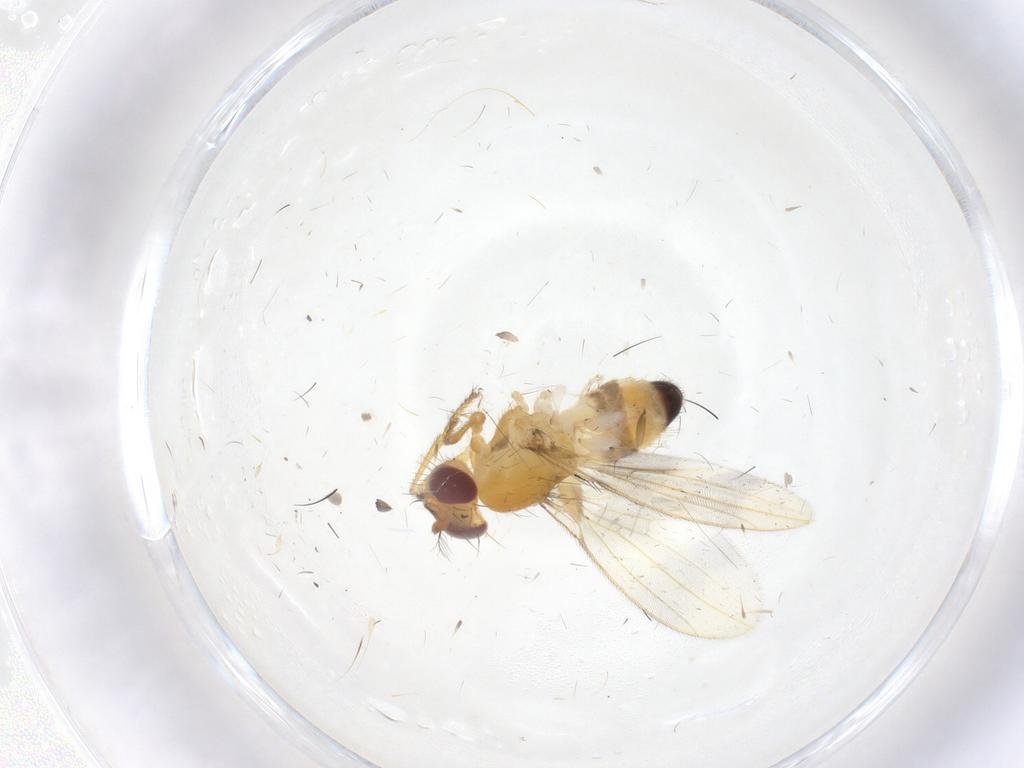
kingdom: Animalia
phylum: Arthropoda
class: Insecta
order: Diptera
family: Periscelididae
